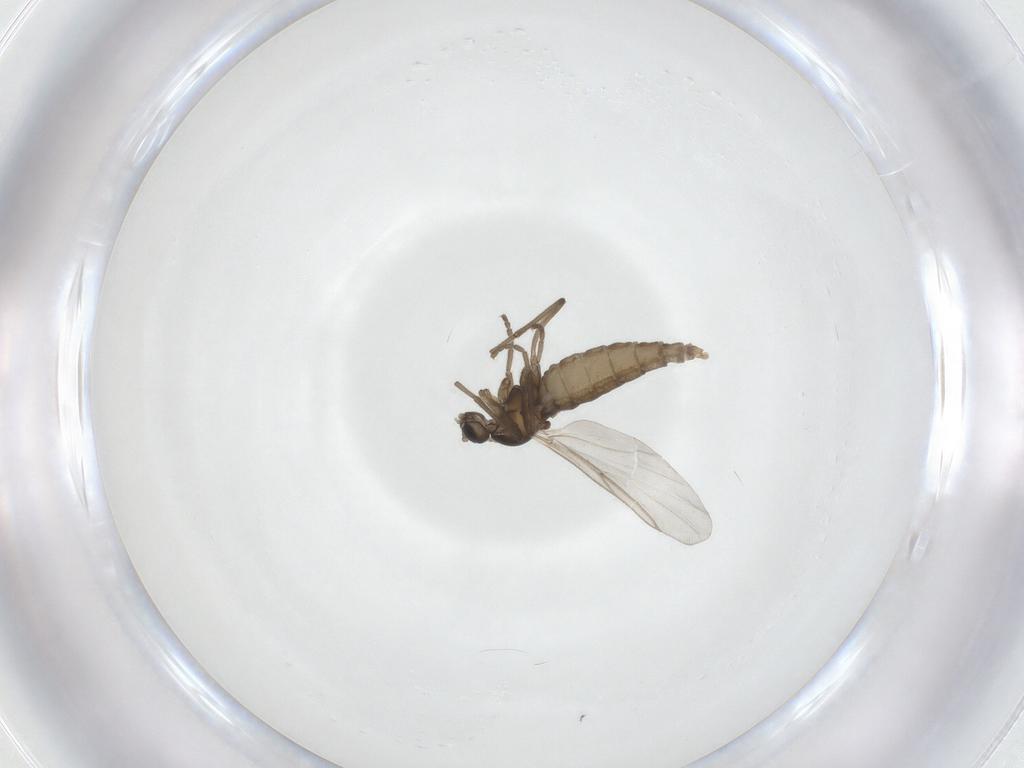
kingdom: Animalia
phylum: Arthropoda
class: Insecta
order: Diptera
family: Cecidomyiidae
